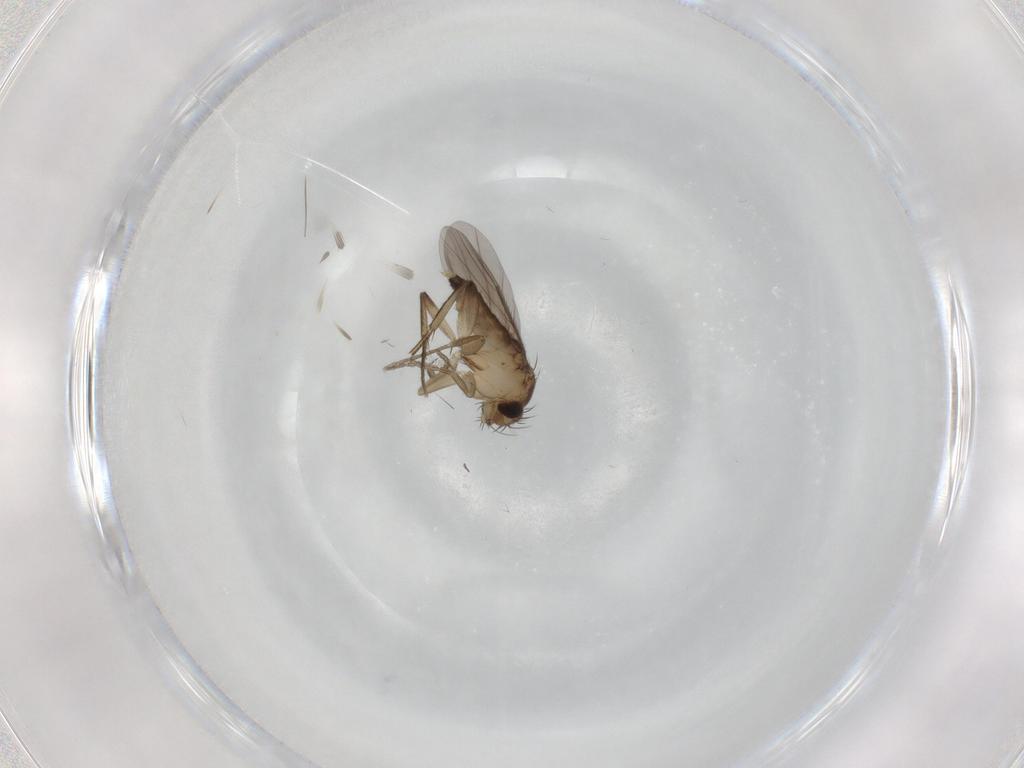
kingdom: Animalia
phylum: Arthropoda
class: Insecta
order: Diptera
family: Phoridae
